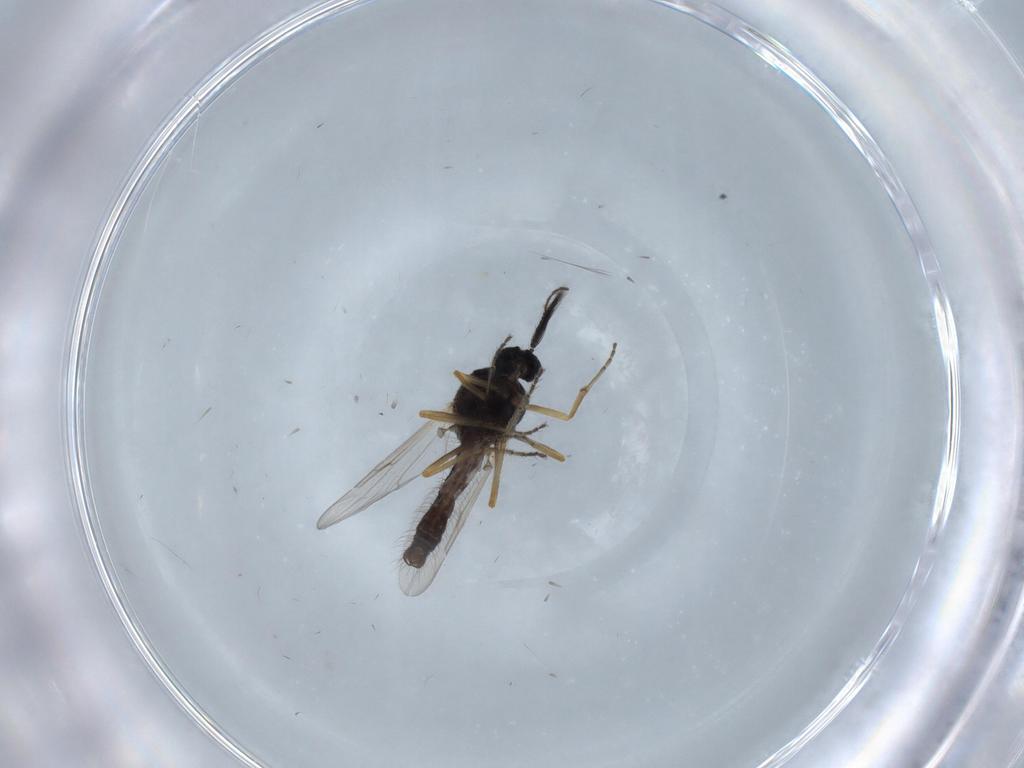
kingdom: Animalia
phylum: Arthropoda
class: Insecta
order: Diptera
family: Ceratopogonidae
